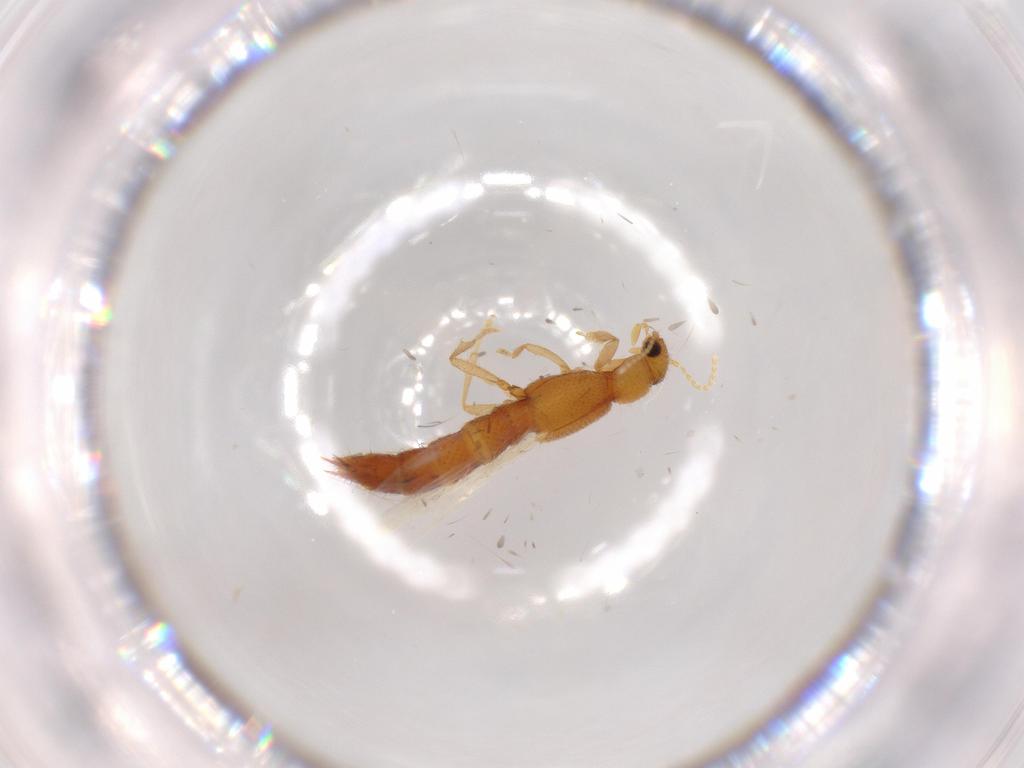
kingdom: Animalia
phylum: Arthropoda
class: Insecta
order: Coleoptera
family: Staphylinidae
